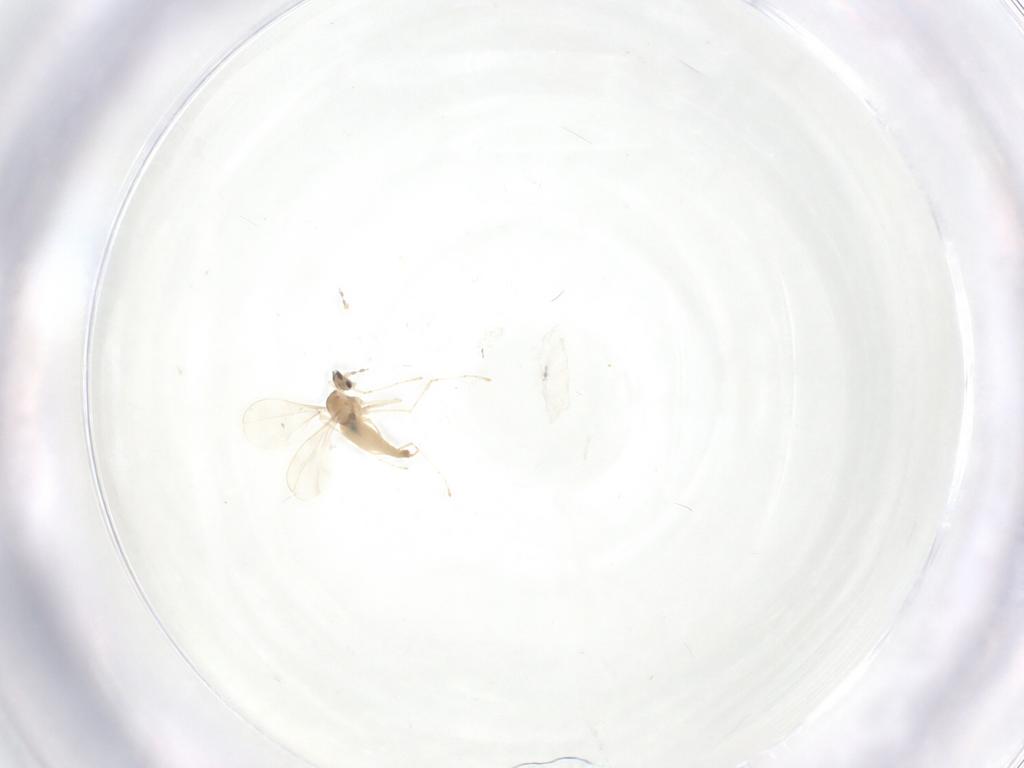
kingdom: Animalia
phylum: Arthropoda
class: Insecta
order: Diptera
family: Cecidomyiidae
